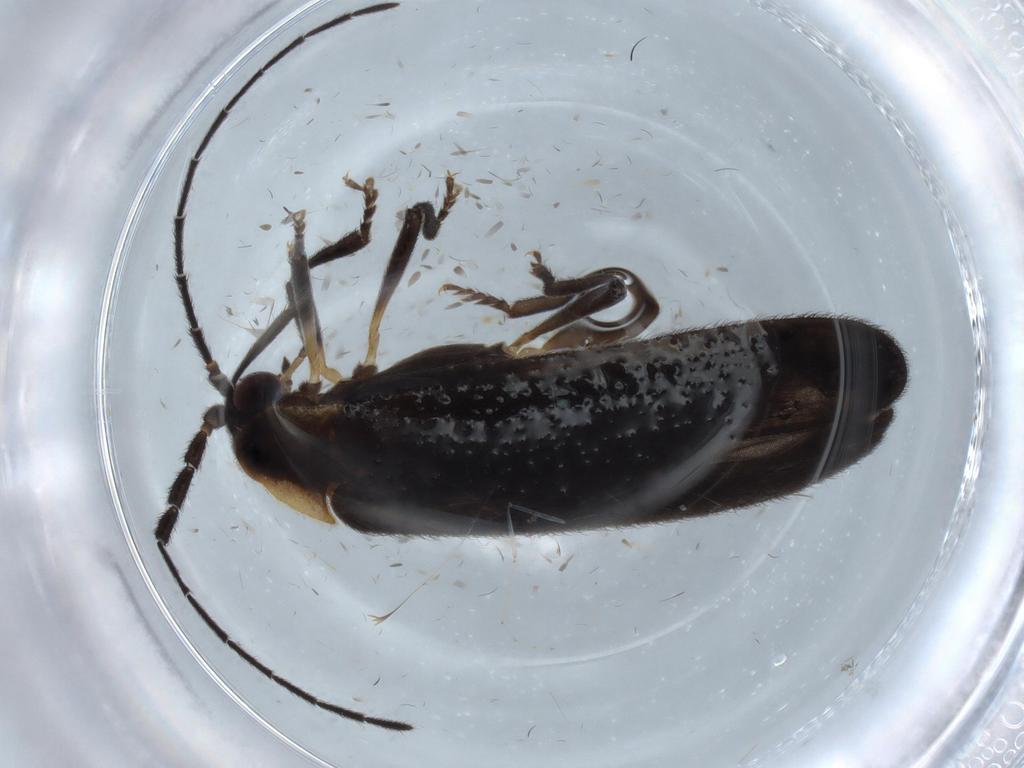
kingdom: Animalia
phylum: Arthropoda
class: Insecta
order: Coleoptera
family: Lycidae
